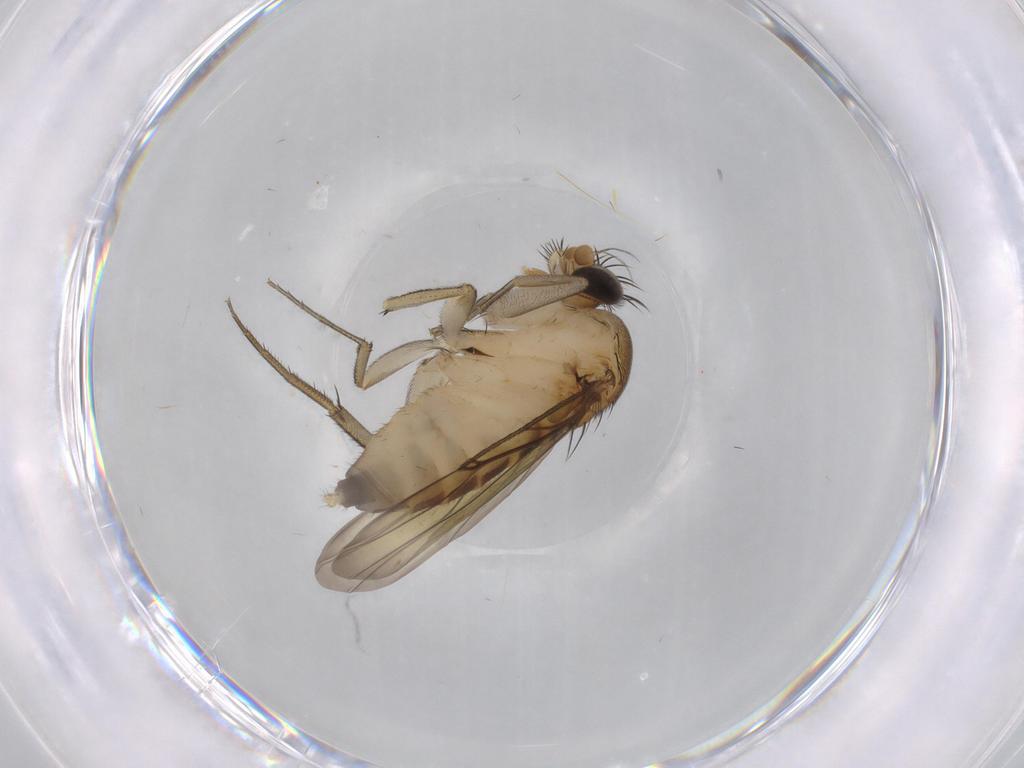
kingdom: Animalia
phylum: Arthropoda
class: Insecta
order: Diptera
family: Phoridae
